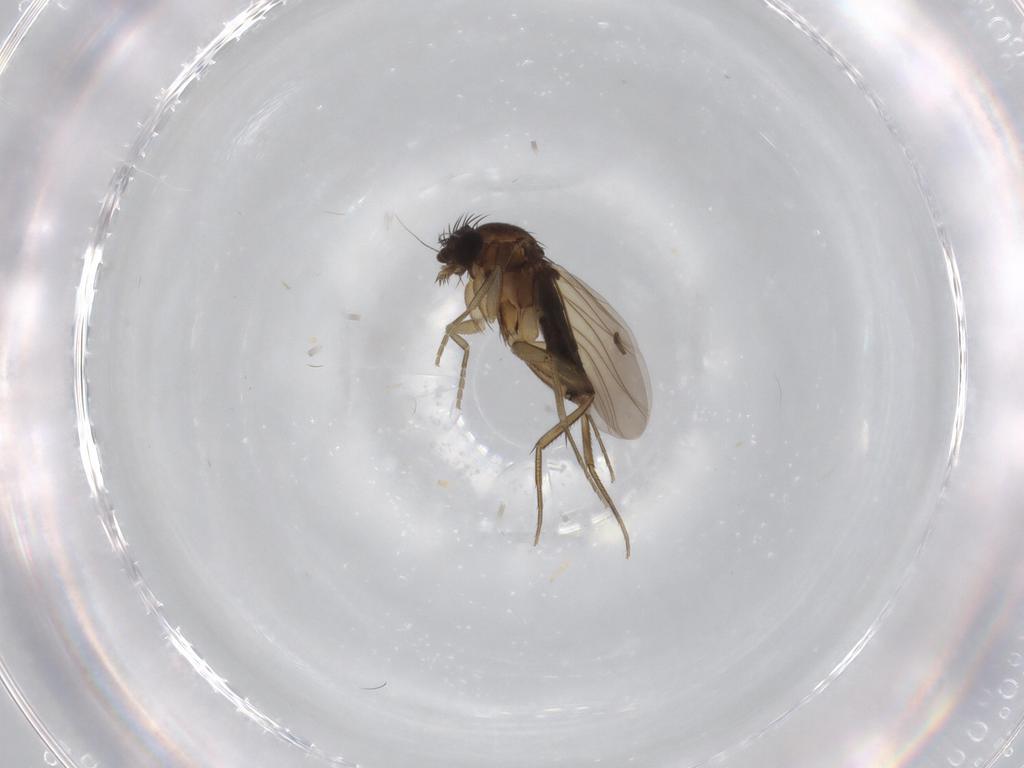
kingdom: Animalia
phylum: Arthropoda
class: Insecta
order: Diptera
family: Phoridae
